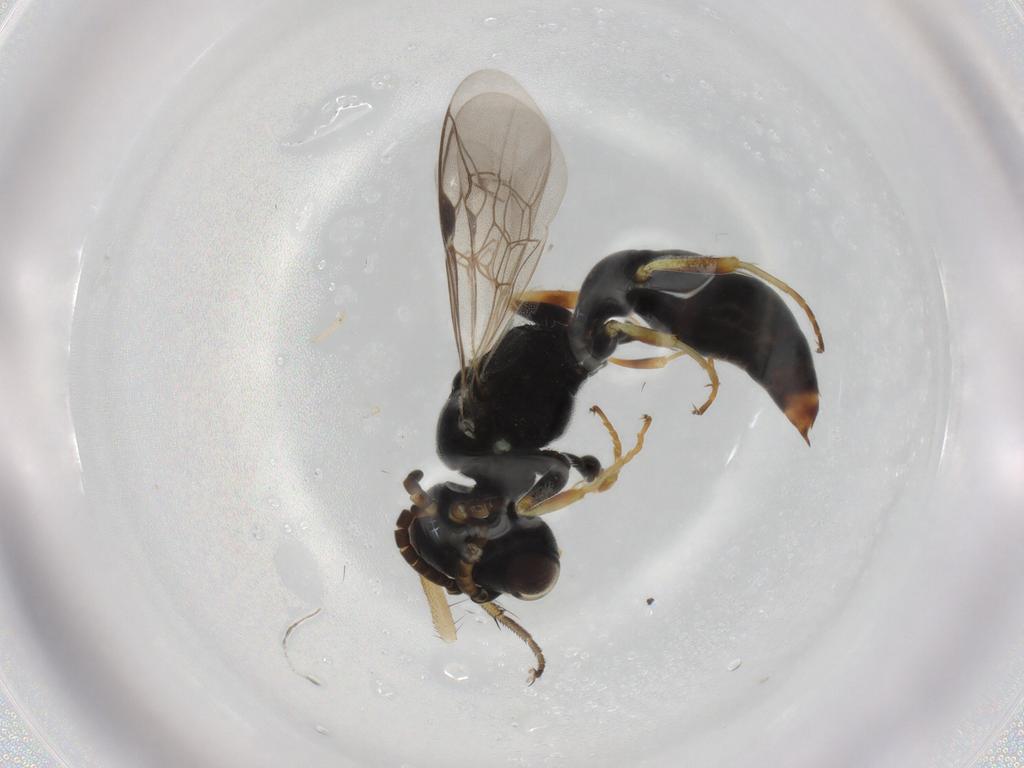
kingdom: Animalia
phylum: Arthropoda
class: Insecta
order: Hymenoptera
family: Crabronidae
